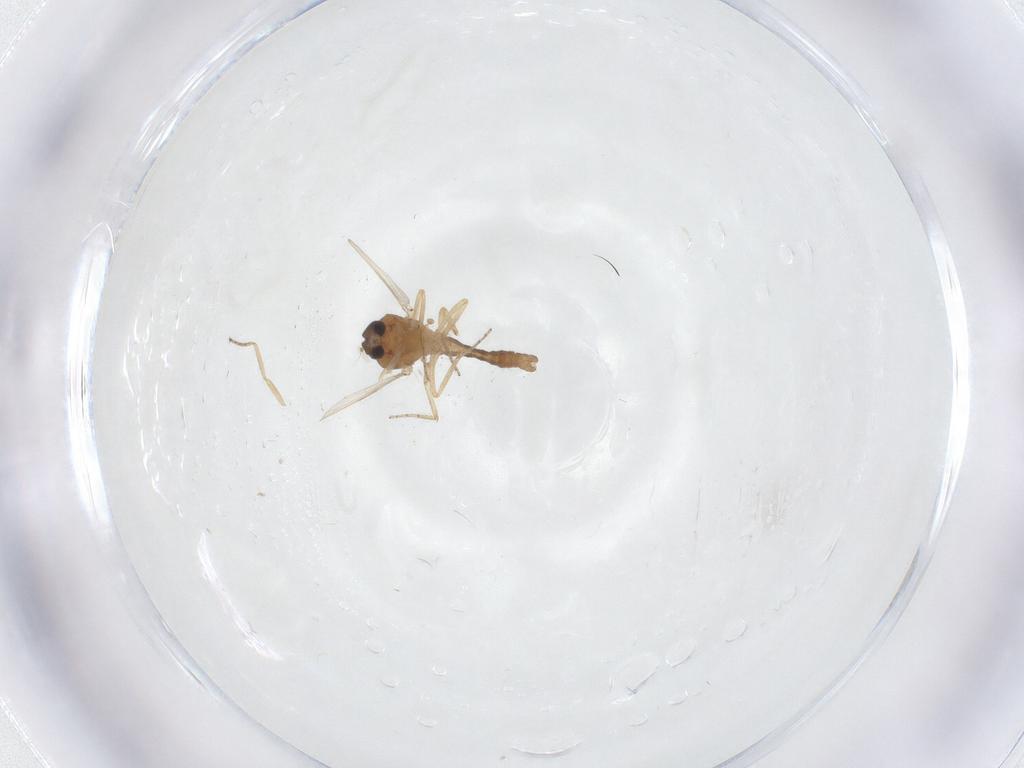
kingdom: Animalia
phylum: Arthropoda
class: Insecta
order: Diptera
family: Ceratopogonidae
